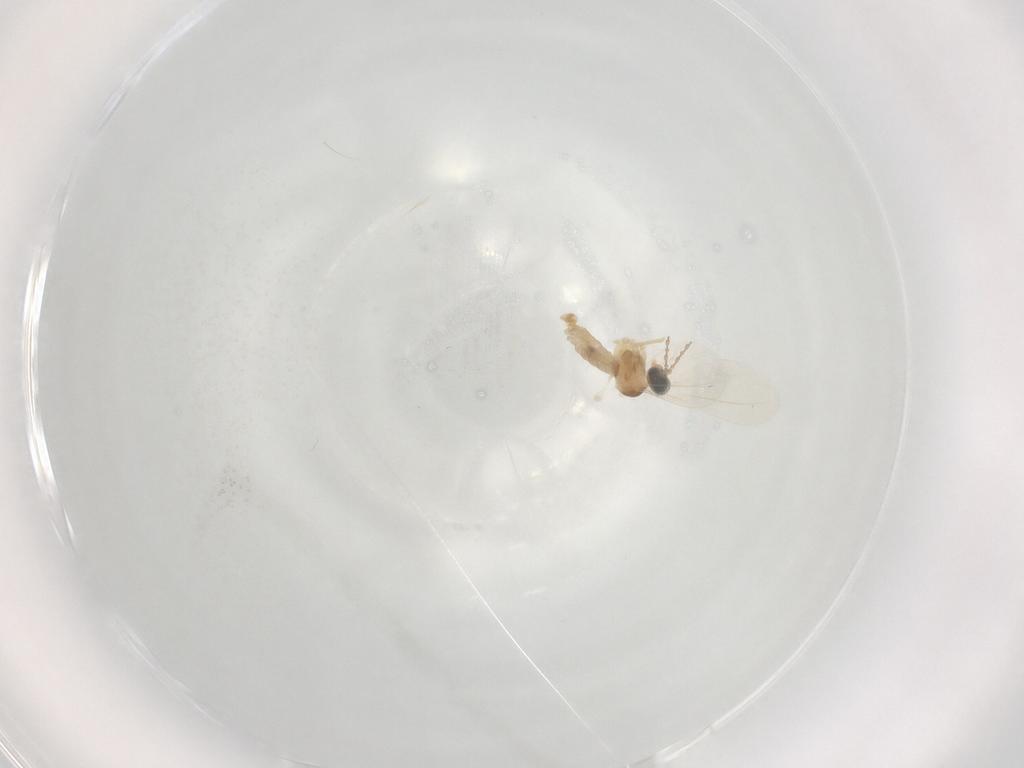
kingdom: Animalia
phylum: Arthropoda
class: Insecta
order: Diptera
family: Cecidomyiidae
